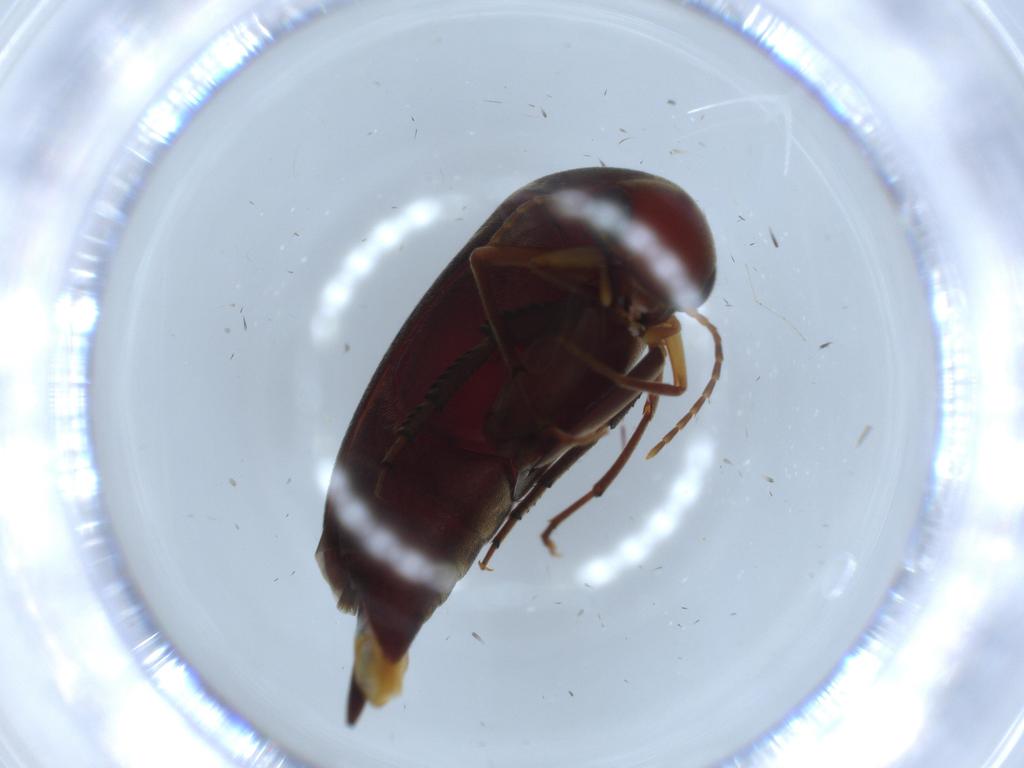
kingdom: Animalia
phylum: Arthropoda
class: Insecta
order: Coleoptera
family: Mordellidae
